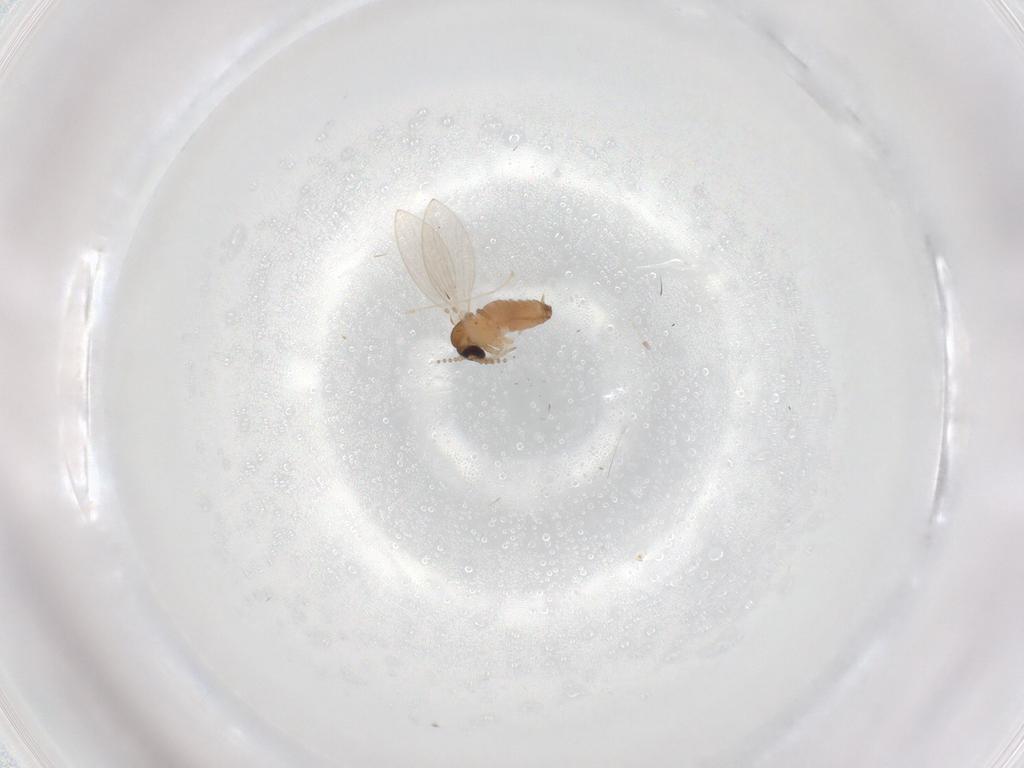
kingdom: Animalia
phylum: Arthropoda
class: Insecta
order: Diptera
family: Psychodidae
